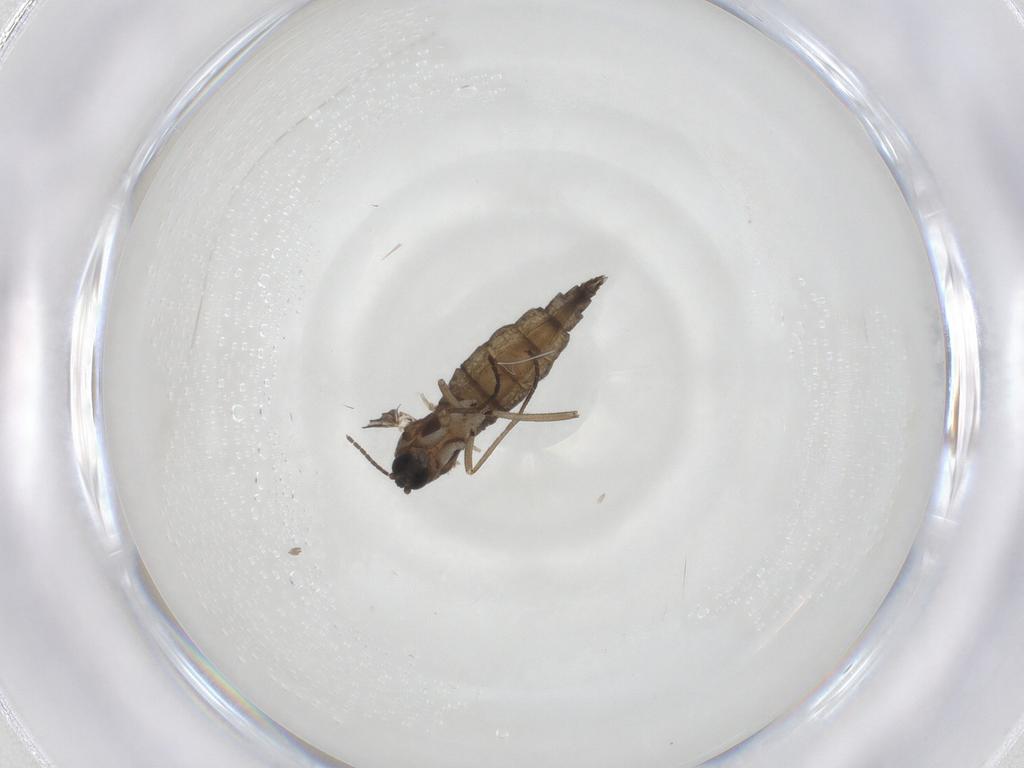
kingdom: Animalia
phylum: Arthropoda
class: Insecta
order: Diptera
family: Sciaridae
